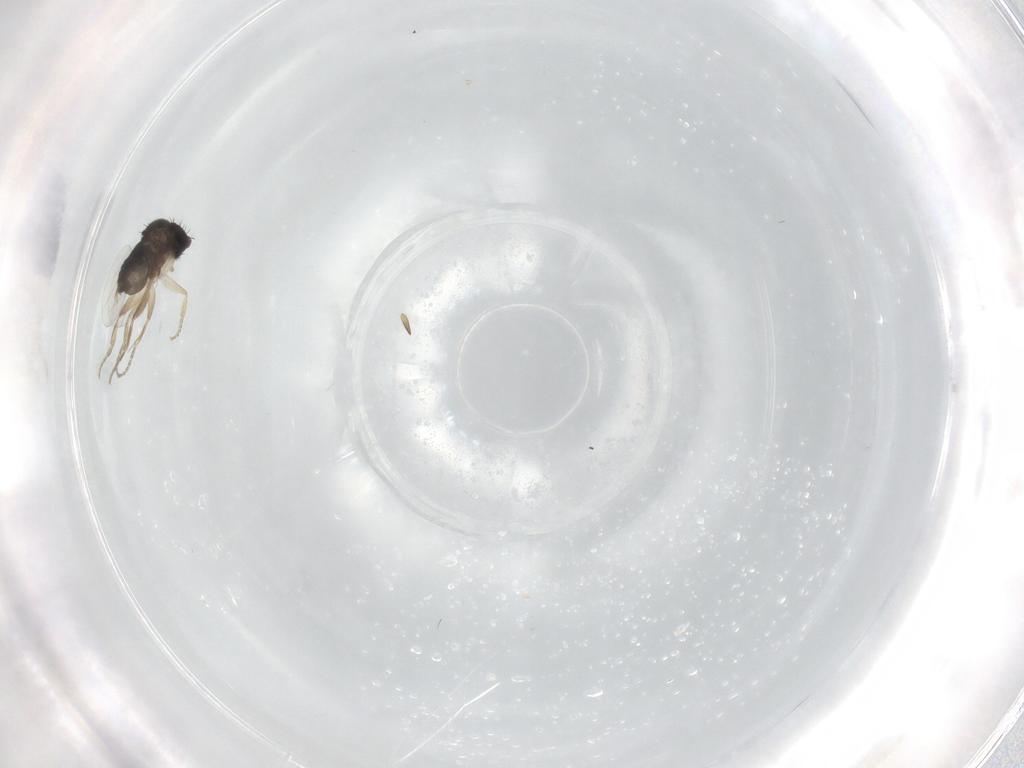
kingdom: Animalia
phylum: Arthropoda
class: Insecta
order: Diptera
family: Phoridae
